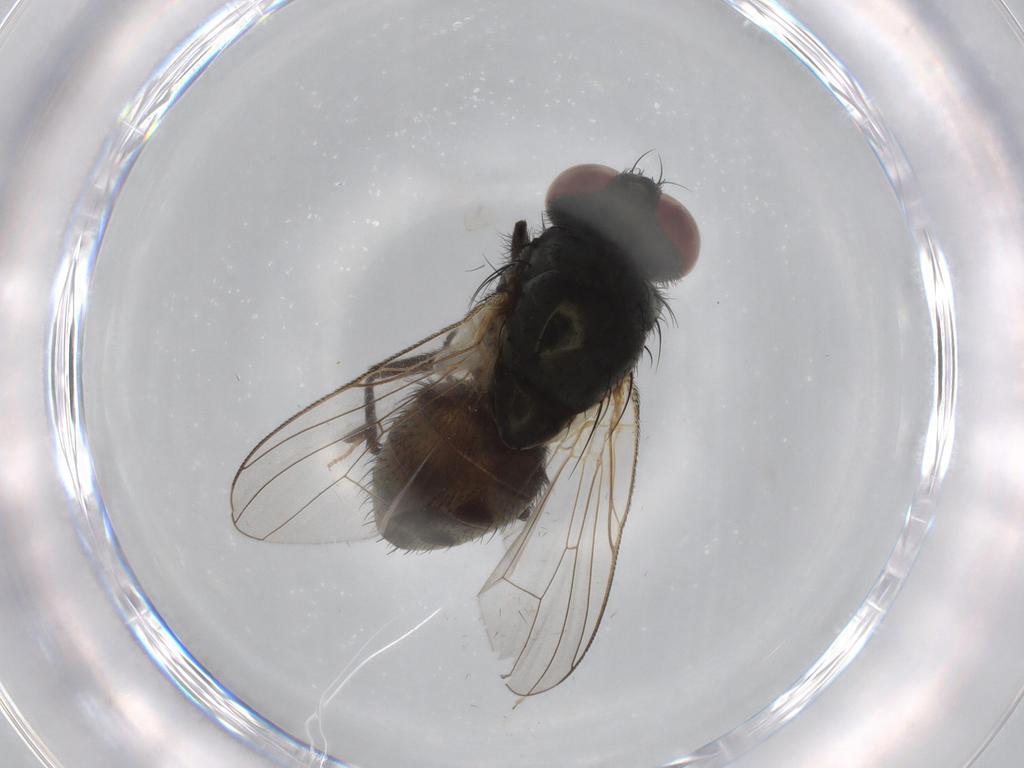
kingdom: Animalia
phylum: Arthropoda
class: Insecta
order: Diptera
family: Muscidae
